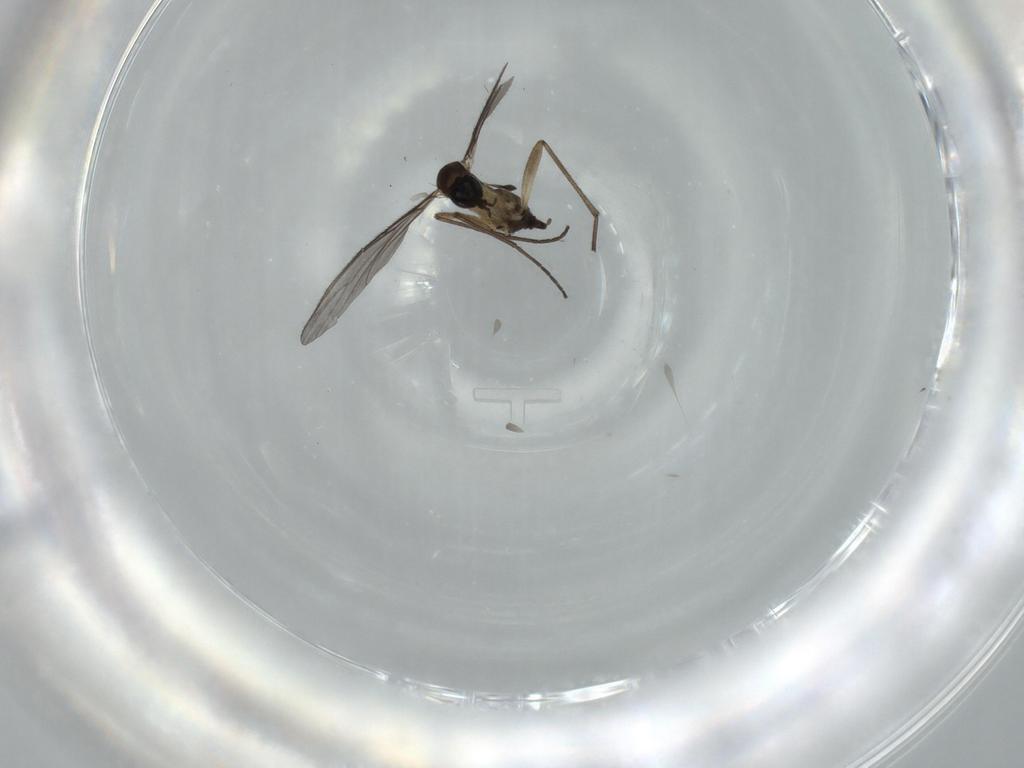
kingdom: Animalia
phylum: Arthropoda
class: Insecta
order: Diptera
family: Sciaridae
